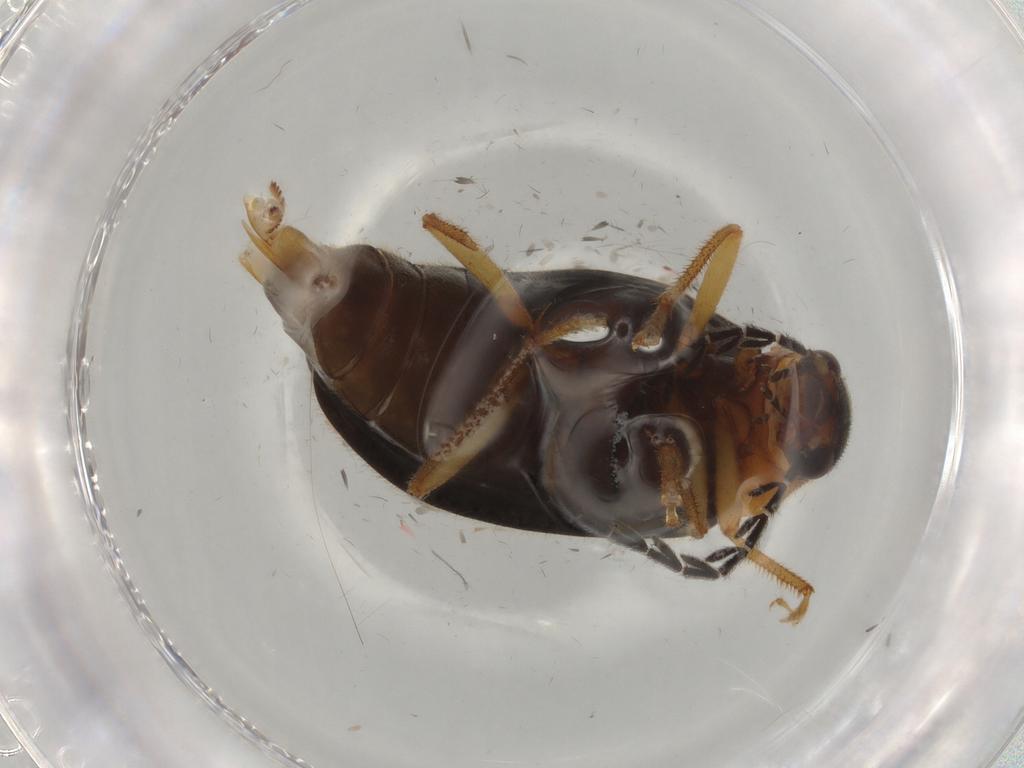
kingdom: Animalia
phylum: Arthropoda
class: Insecta
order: Coleoptera
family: Ptilodactylidae
